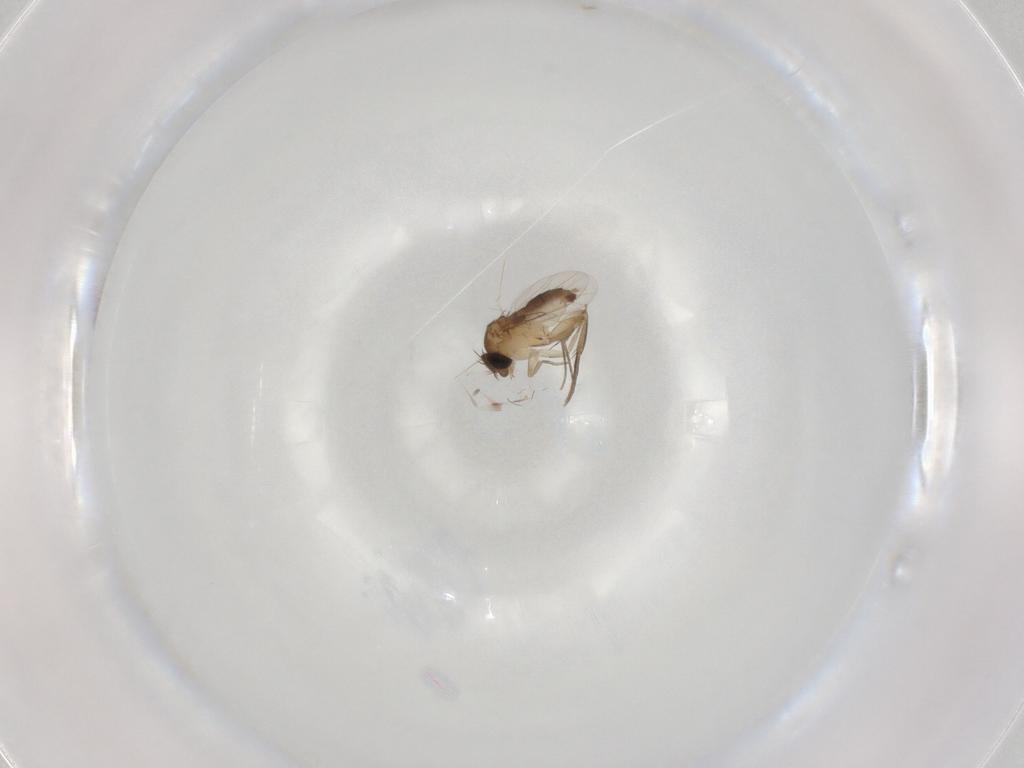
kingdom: Animalia
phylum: Arthropoda
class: Insecta
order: Diptera
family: Phoridae
